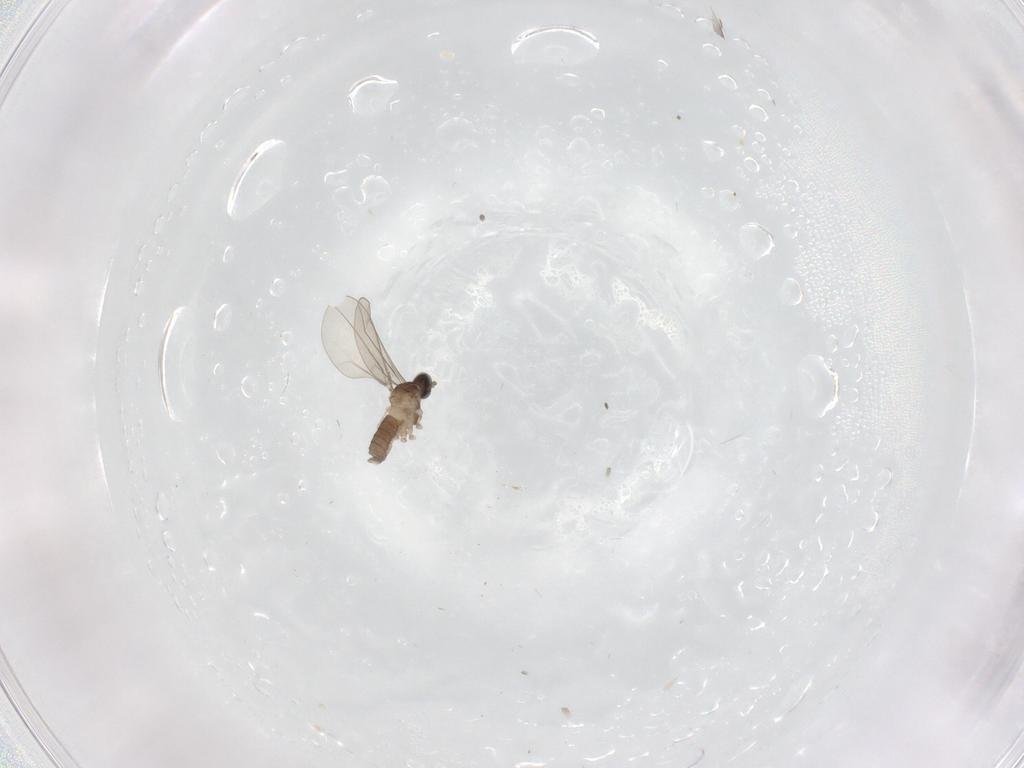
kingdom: Animalia
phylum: Arthropoda
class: Insecta
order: Diptera
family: Cecidomyiidae
